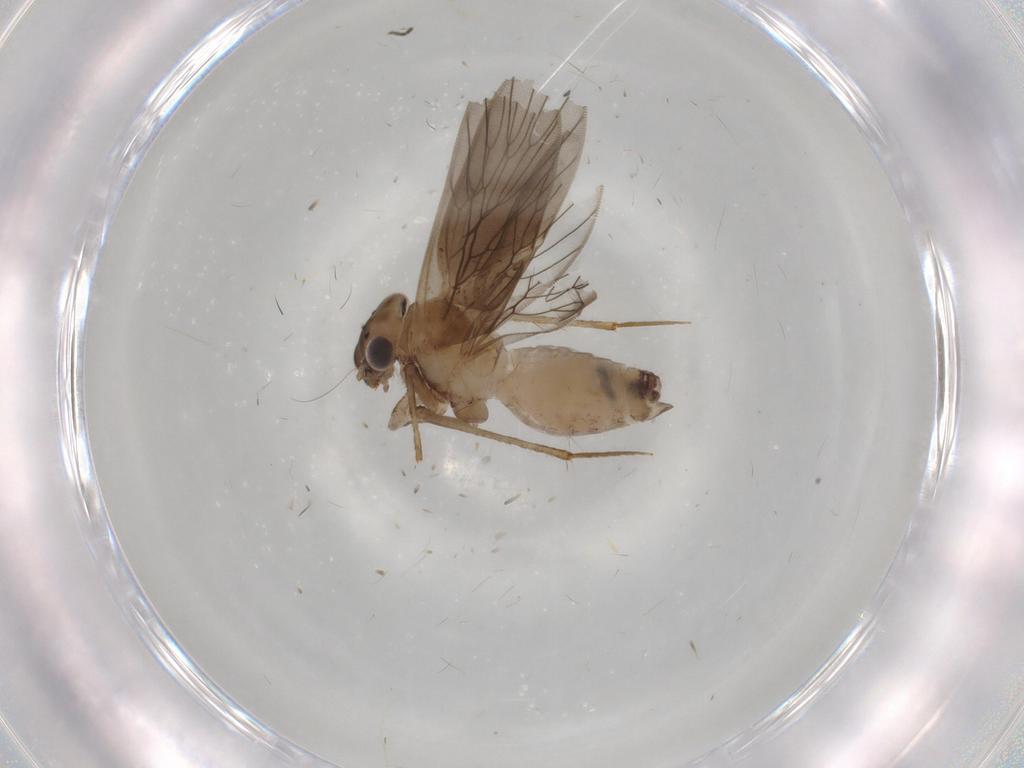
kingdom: Animalia
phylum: Arthropoda
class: Insecta
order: Psocodea
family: Lepidopsocidae
